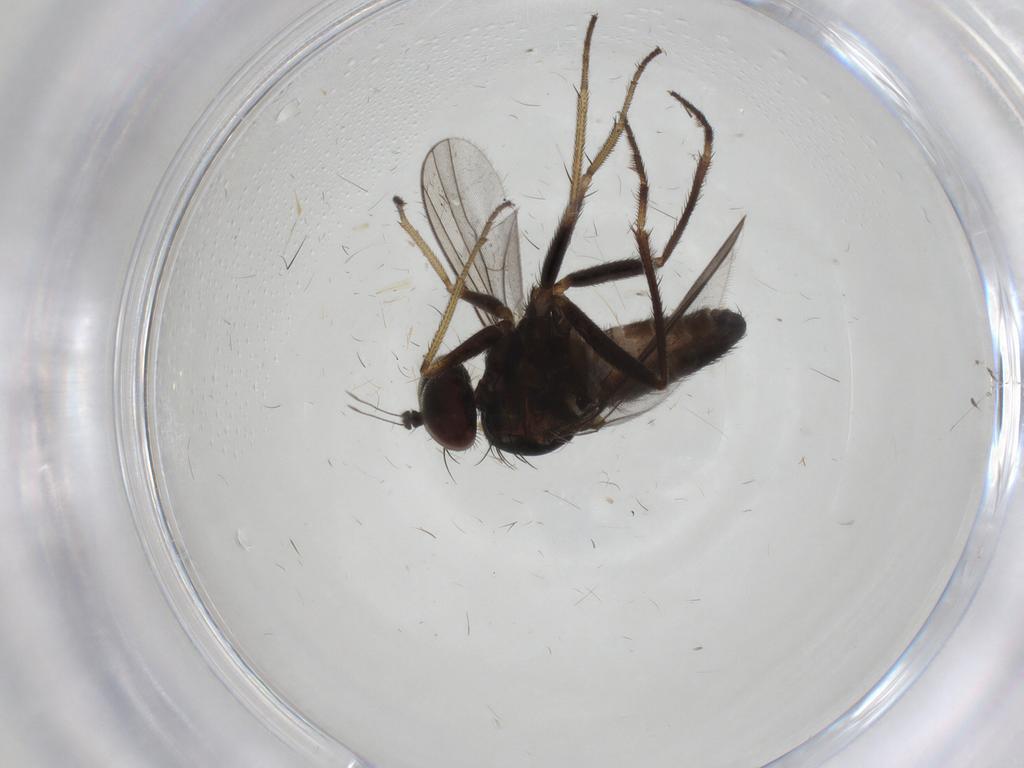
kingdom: Animalia
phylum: Arthropoda
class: Insecta
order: Diptera
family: Dolichopodidae
